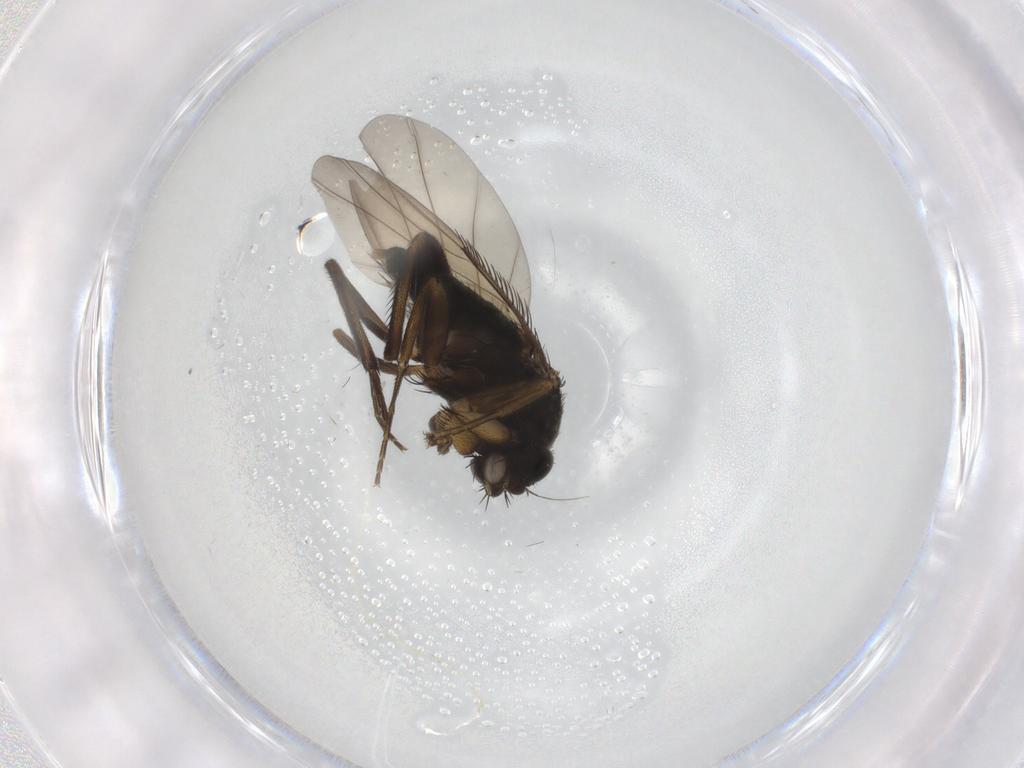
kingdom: Animalia
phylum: Arthropoda
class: Insecta
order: Diptera
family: Phoridae
